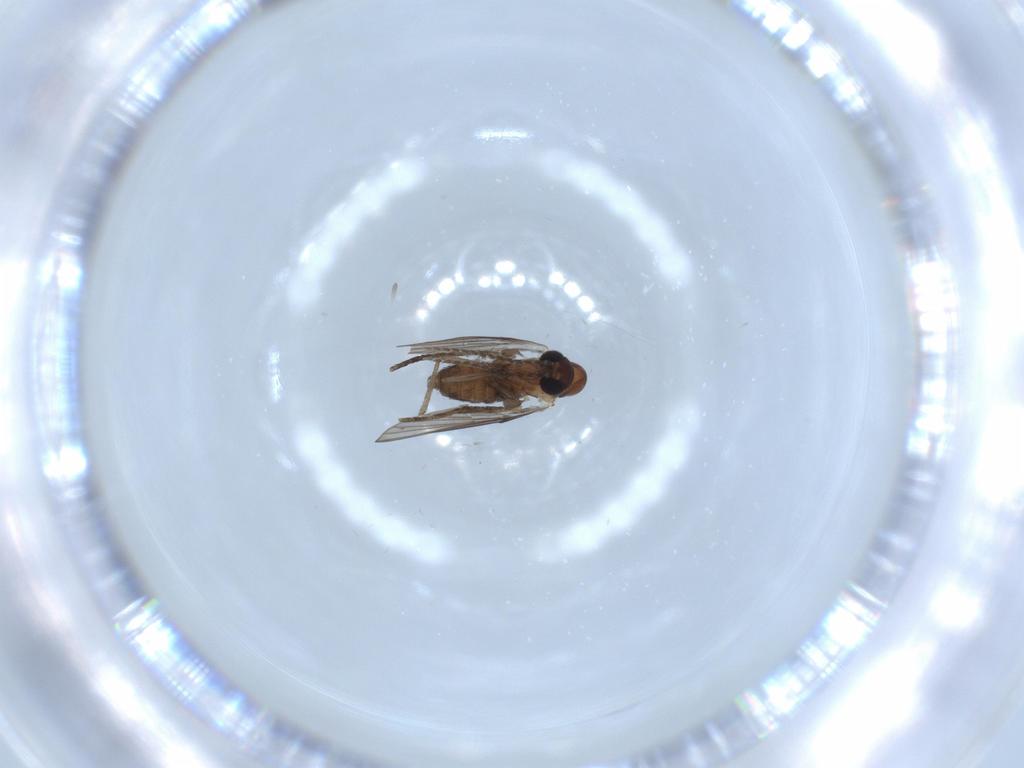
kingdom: Animalia
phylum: Arthropoda
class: Insecta
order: Diptera
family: Psychodidae
